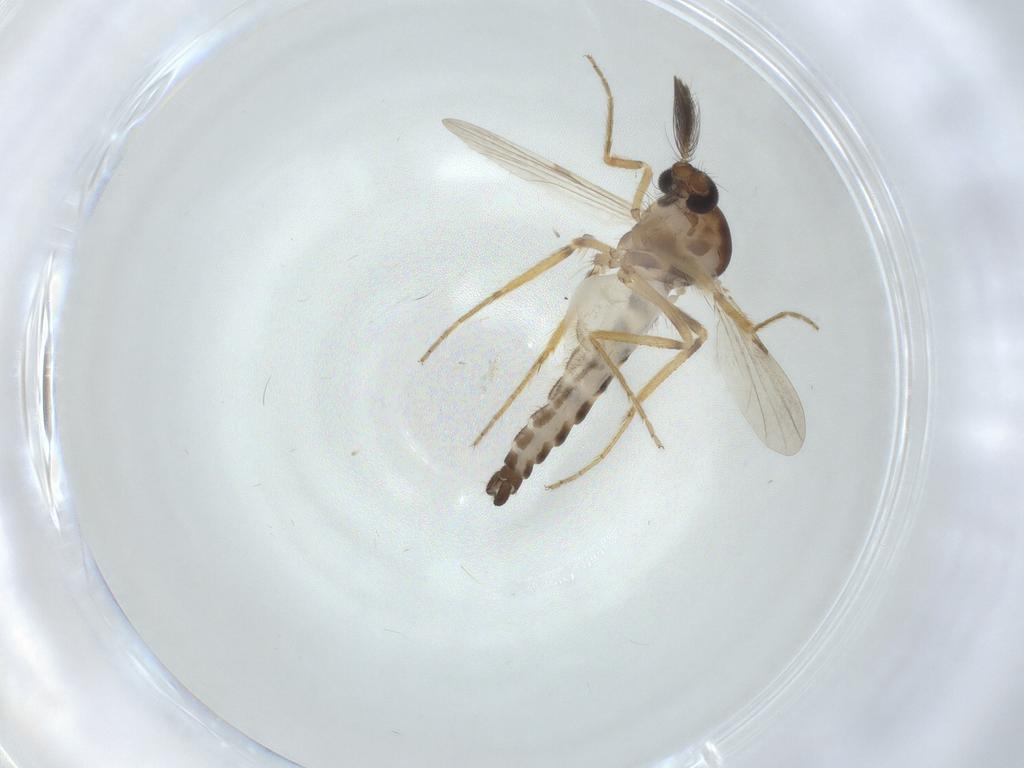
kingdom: Animalia
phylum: Arthropoda
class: Insecta
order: Diptera
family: Ceratopogonidae
